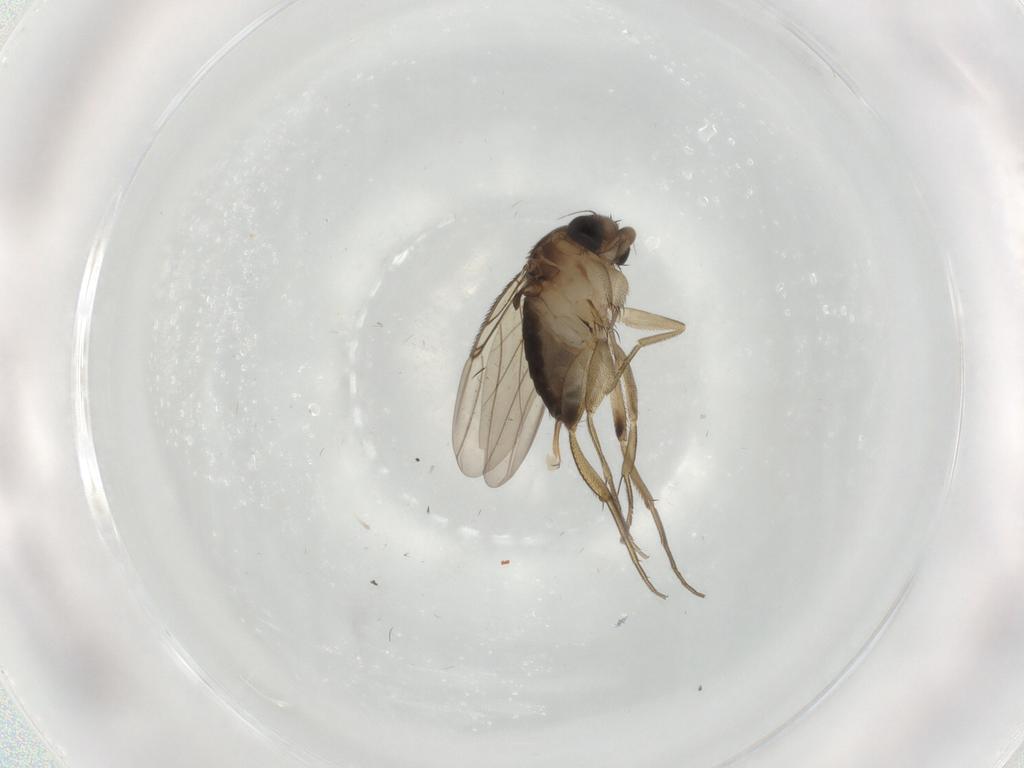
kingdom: Animalia
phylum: Arthropoda
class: Insecta
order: Diptera
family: Phoridae
